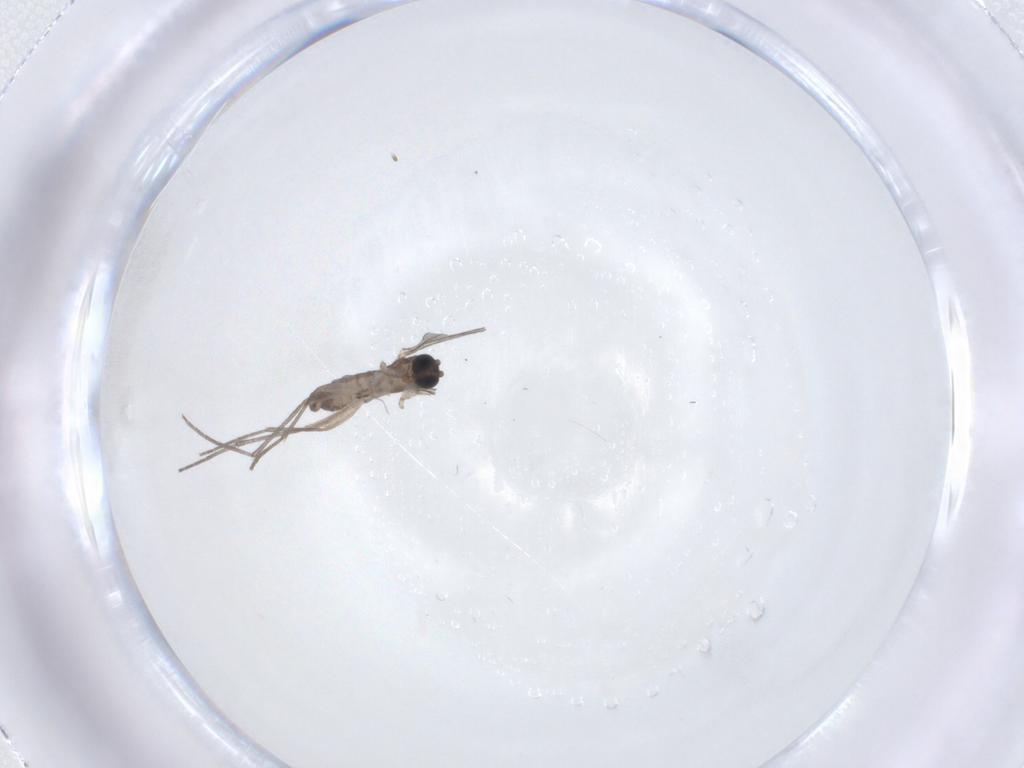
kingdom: Animalia
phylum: Arthropoda
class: Insecta
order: Diptera
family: Sciaridae
